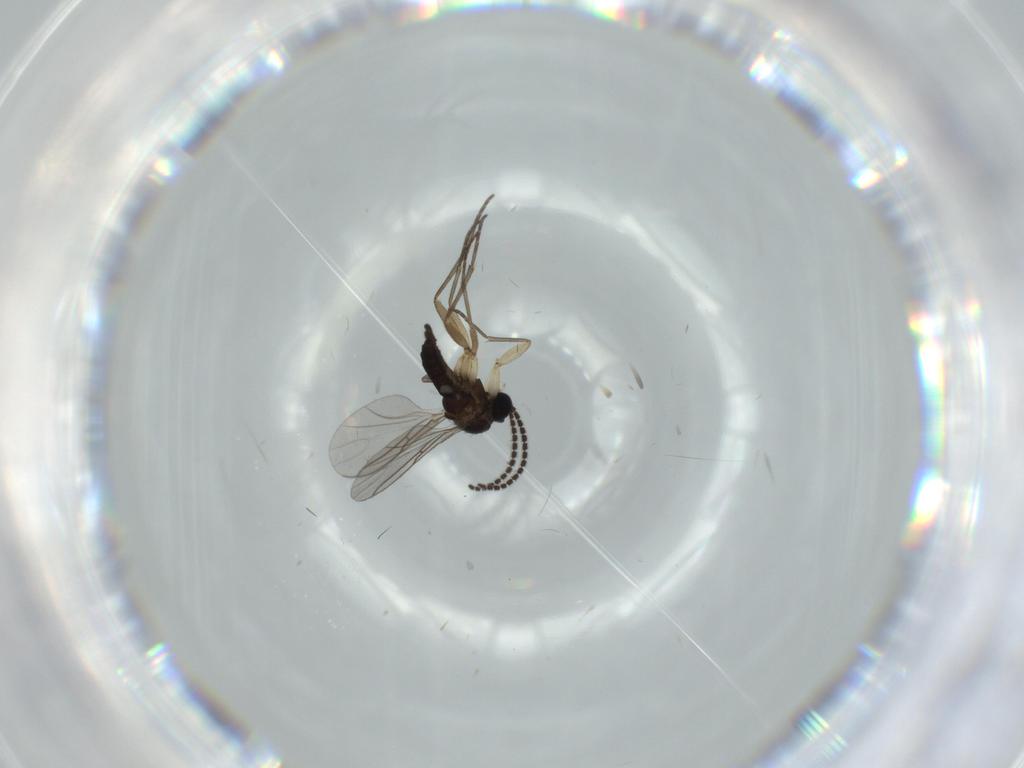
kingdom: Animalia
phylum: Arthropoda
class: Insecta
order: Diptera
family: Sciaridae
